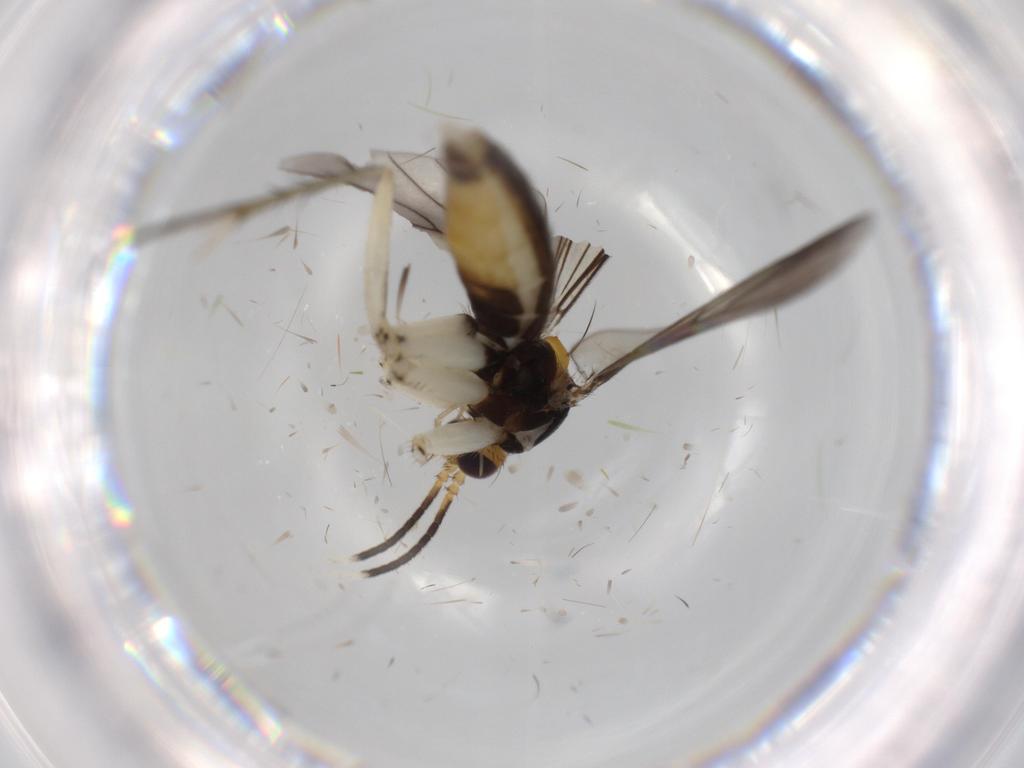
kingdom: Animalia
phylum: Arthropoda
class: Insecta
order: Diptera
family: Mycetophilidae
